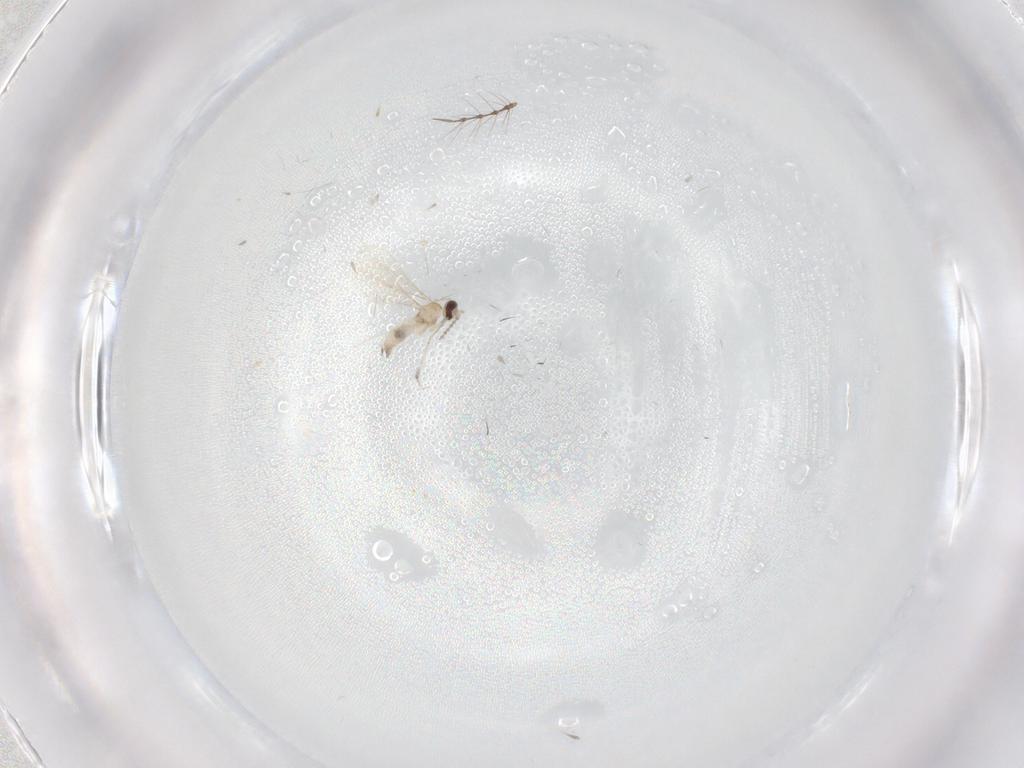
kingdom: Animalia
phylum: Arthropoda
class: Insecta
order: Diptera
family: Chironomidae
